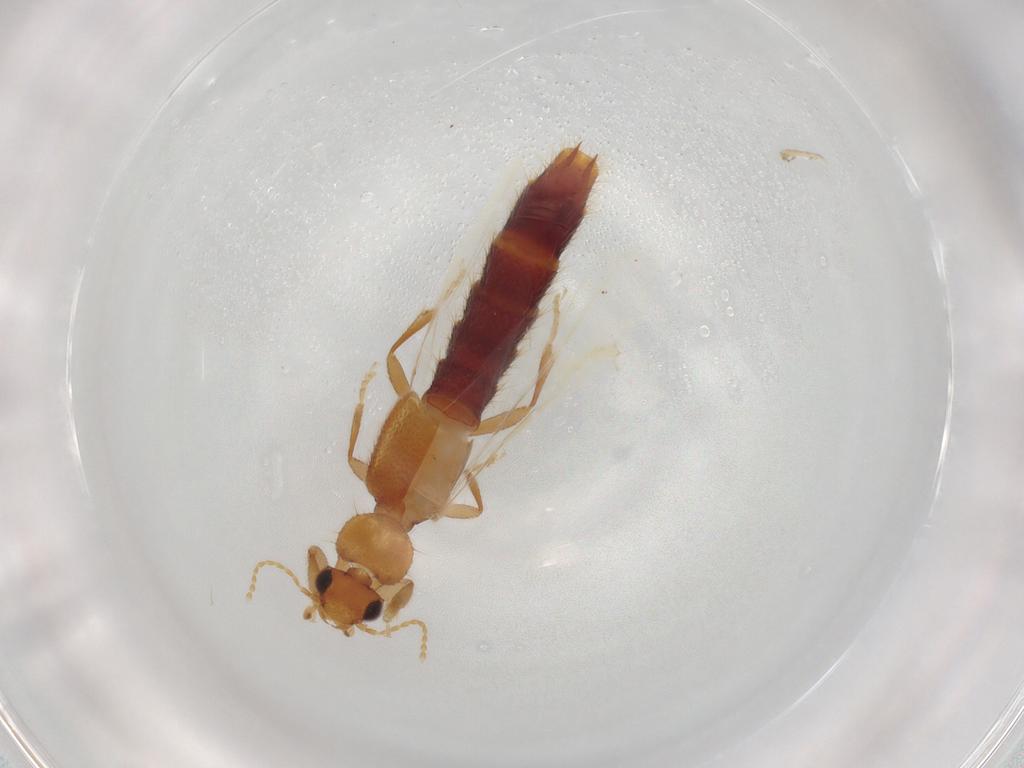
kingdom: Animalia
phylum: Arthropoda
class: Insecta
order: Coleoptera
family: Staphylinidae
